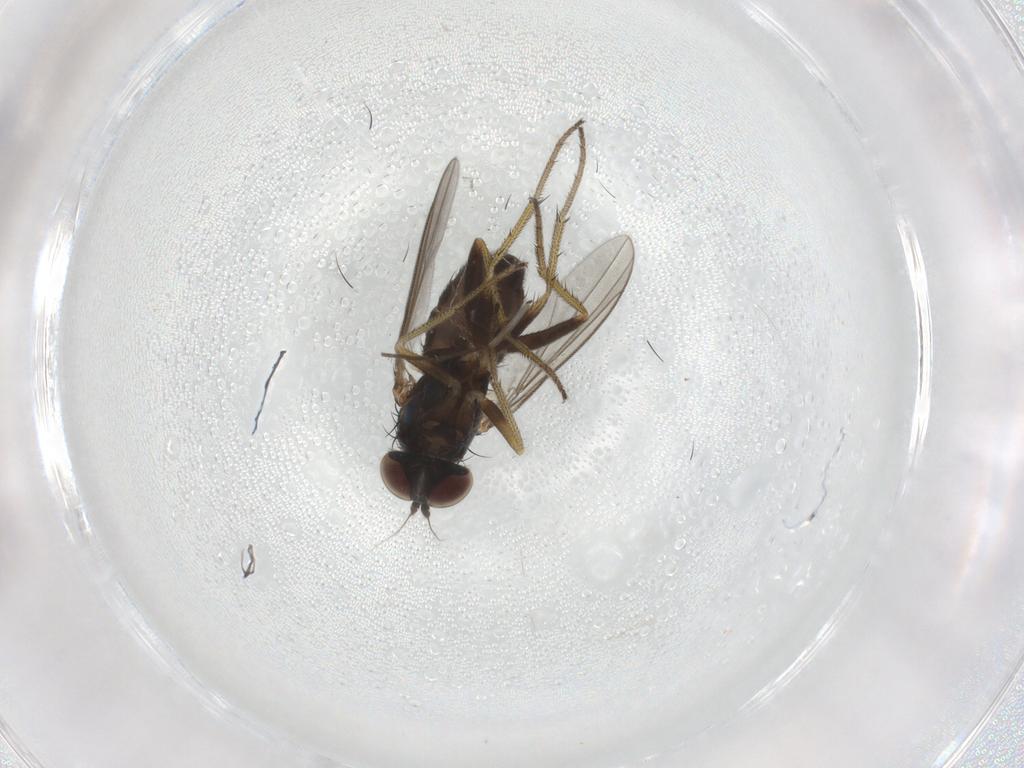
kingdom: Animalia
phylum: Arthropoda
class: Insecta
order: Diptera
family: Sciaridae
